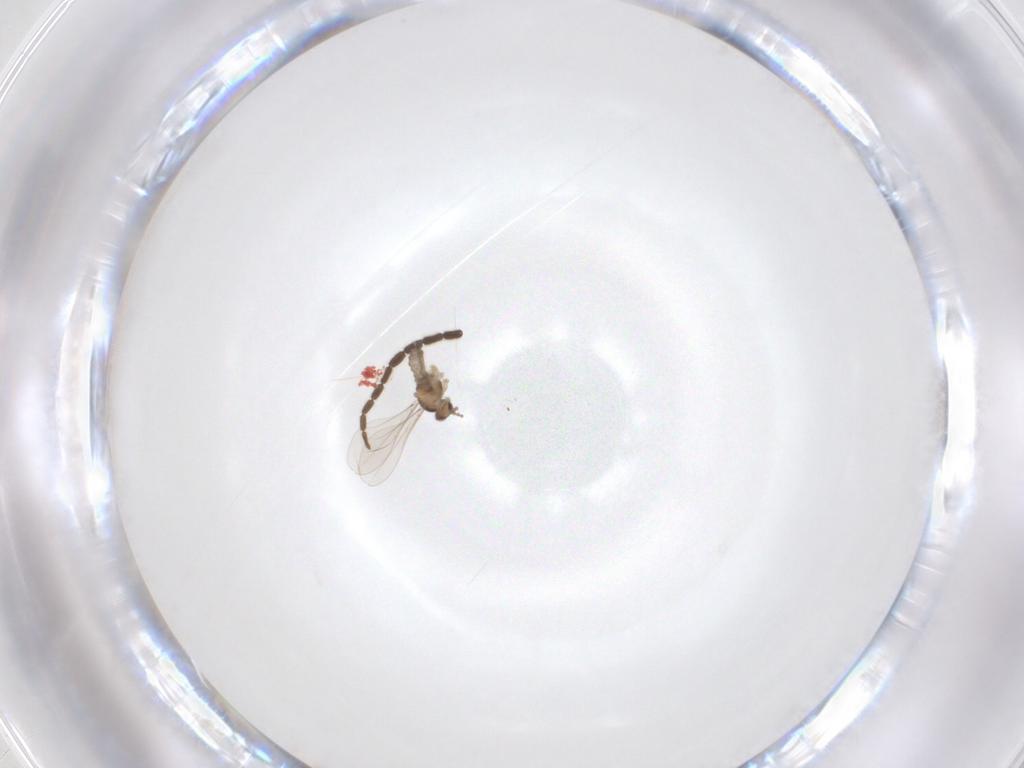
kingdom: Animalia
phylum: Arthropoda
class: Insecta
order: Diptera
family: Cecidomyiidae
